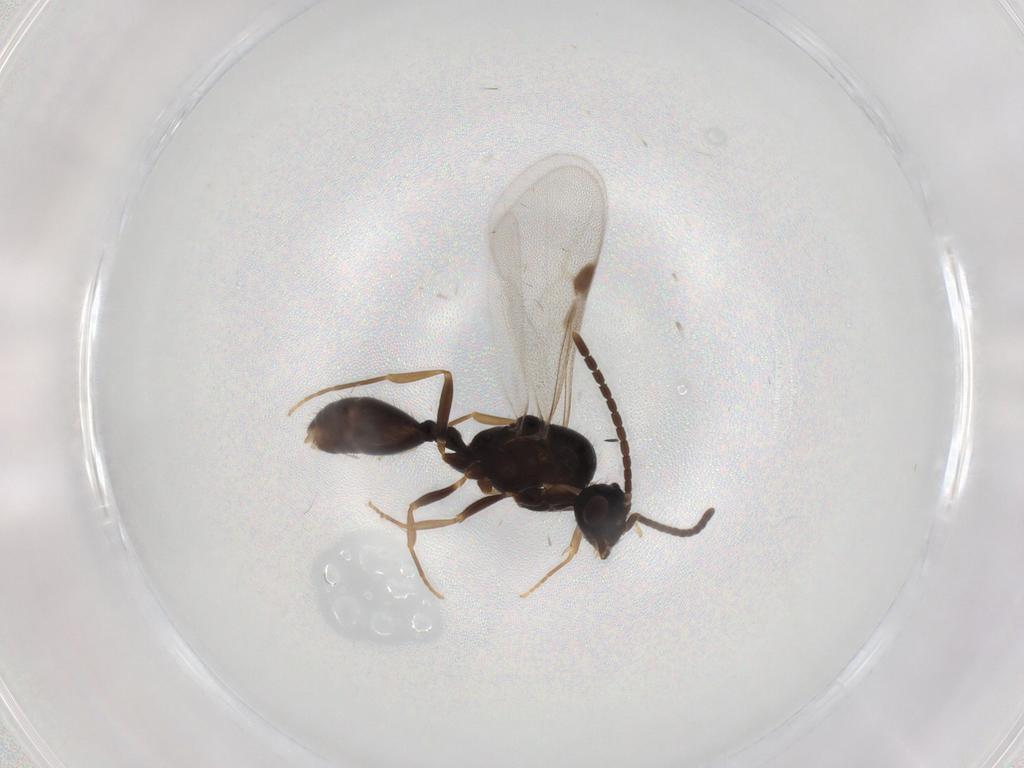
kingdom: Animalia
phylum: Arthropoda
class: Insecta
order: Hymenoptera
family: Formicidae
